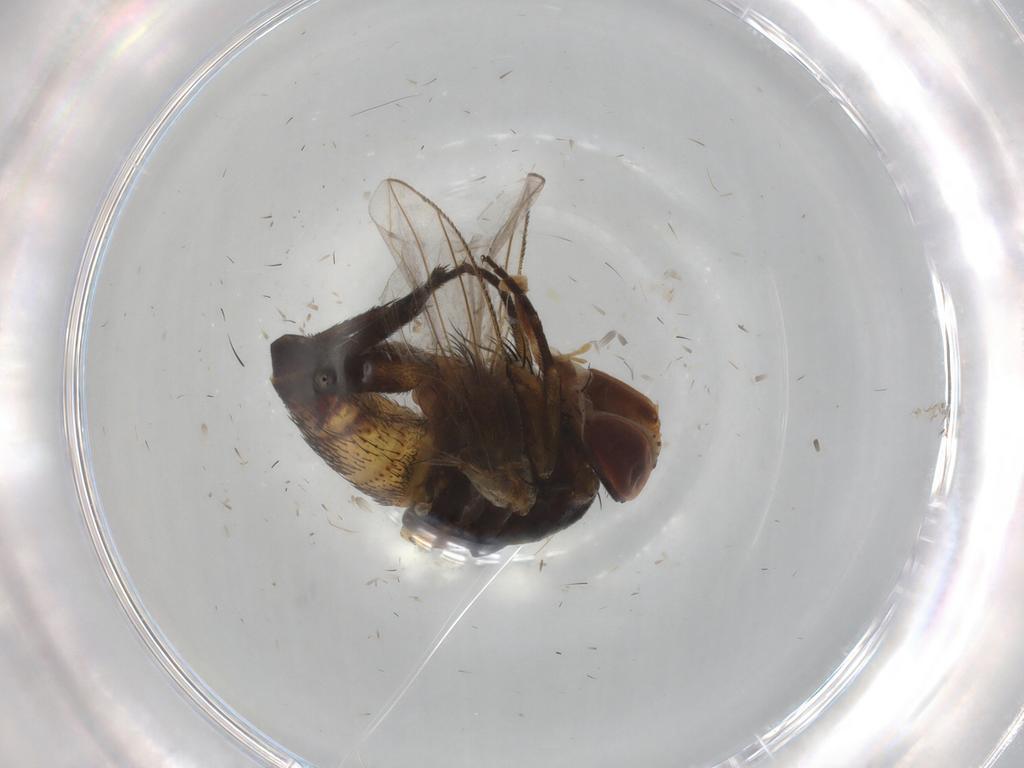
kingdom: Animalia
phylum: Arthropoda
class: Insecta
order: Diptera
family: Glossinidae
